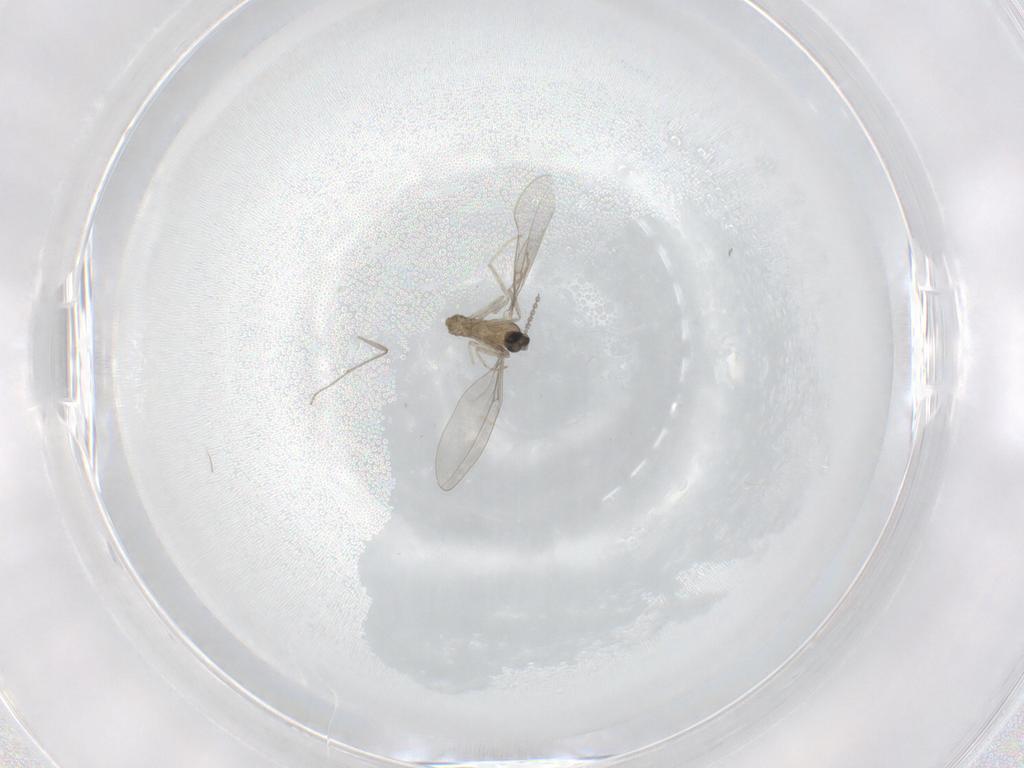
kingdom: Animalia
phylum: Arthropoda
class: Insecta
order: Diptera
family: Cecidomyiidae
